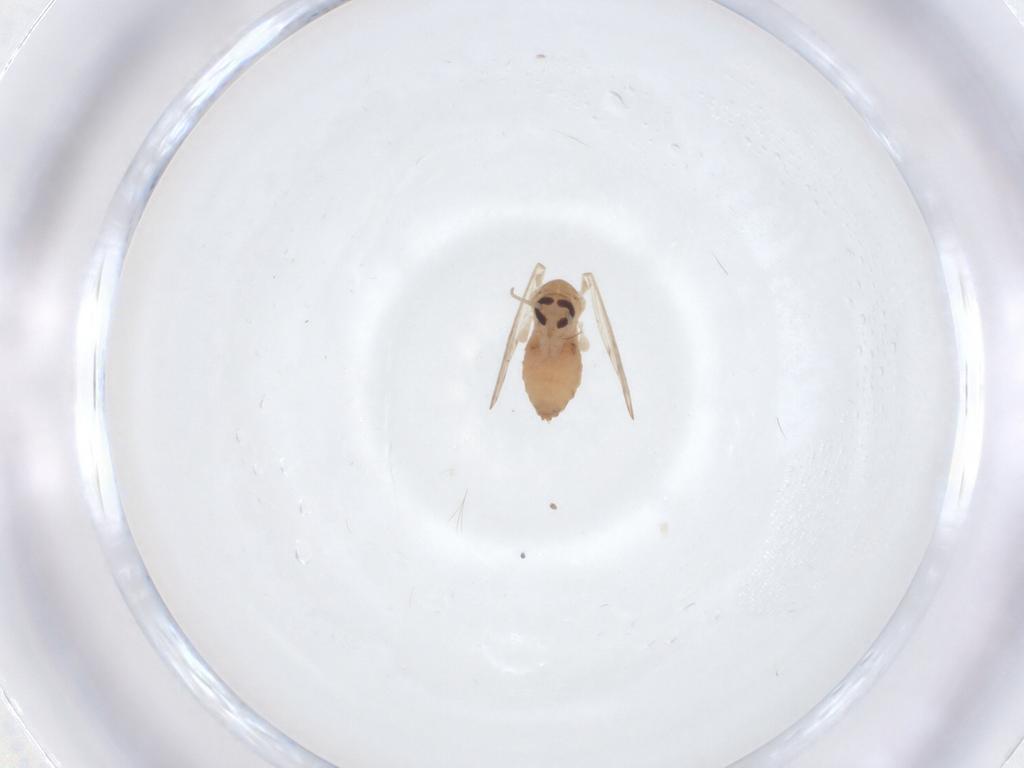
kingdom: Animalia
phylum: Arthropoda
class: Insecta
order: Diptera
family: Psychodidae
